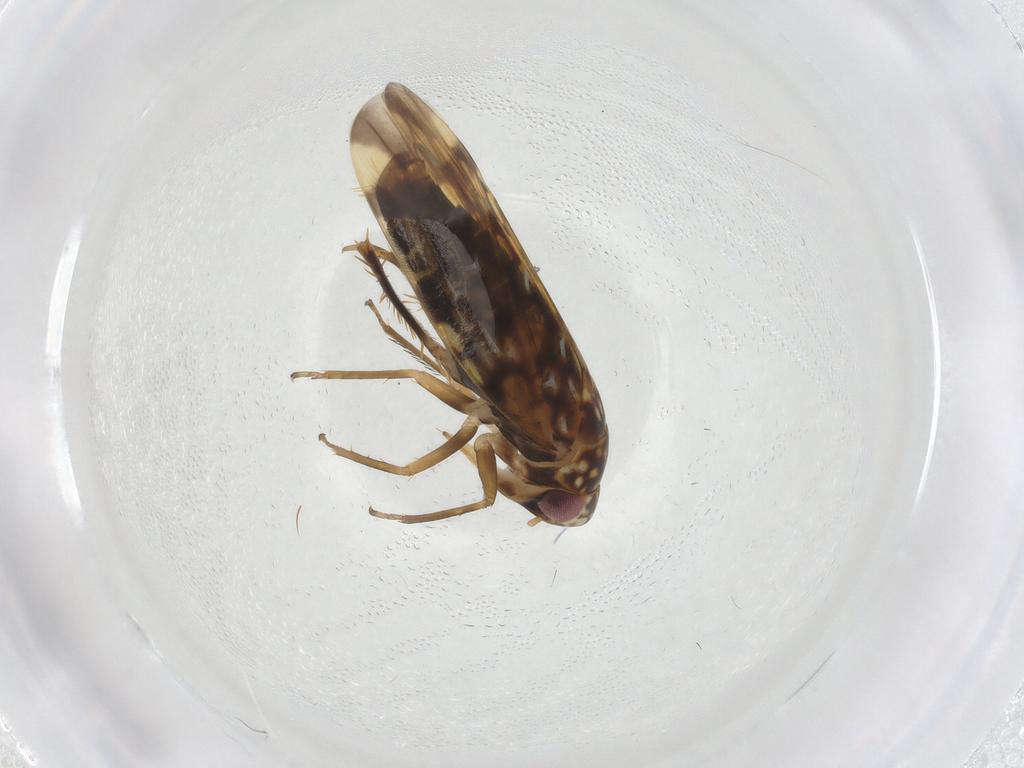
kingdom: Animalia
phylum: Arthropoda
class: Insecta
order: Hemiptera
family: Cicadellidae
